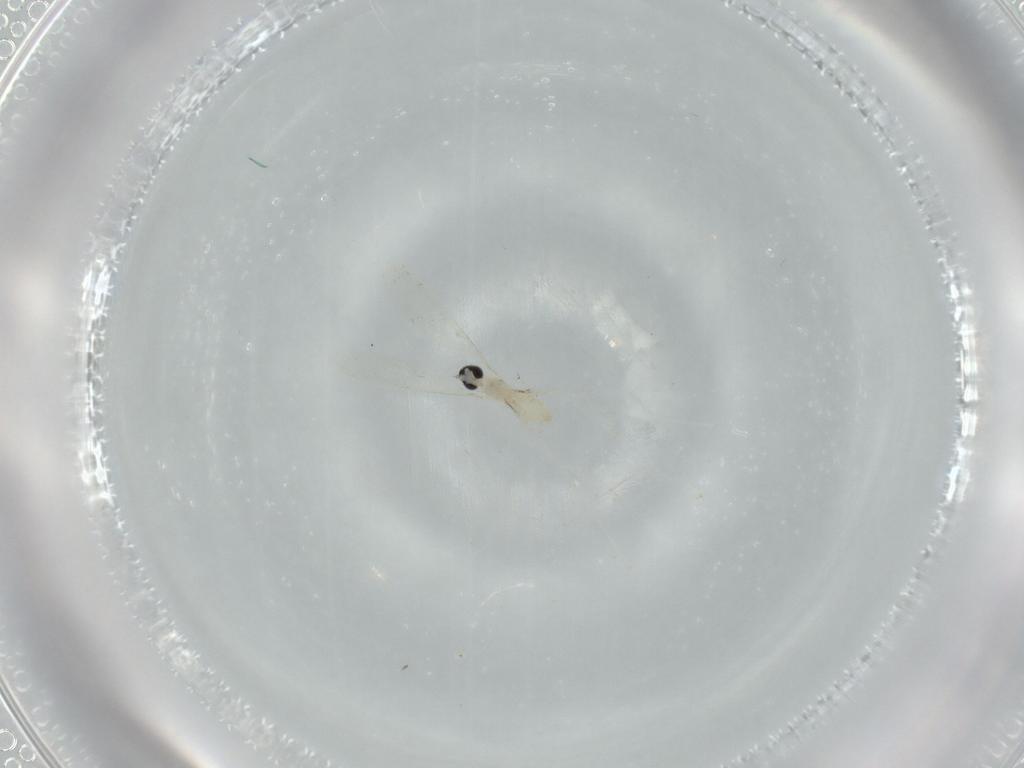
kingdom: Animalia
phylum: Arthropoda
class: Insecta
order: Diptera
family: Cecidomyiidae
